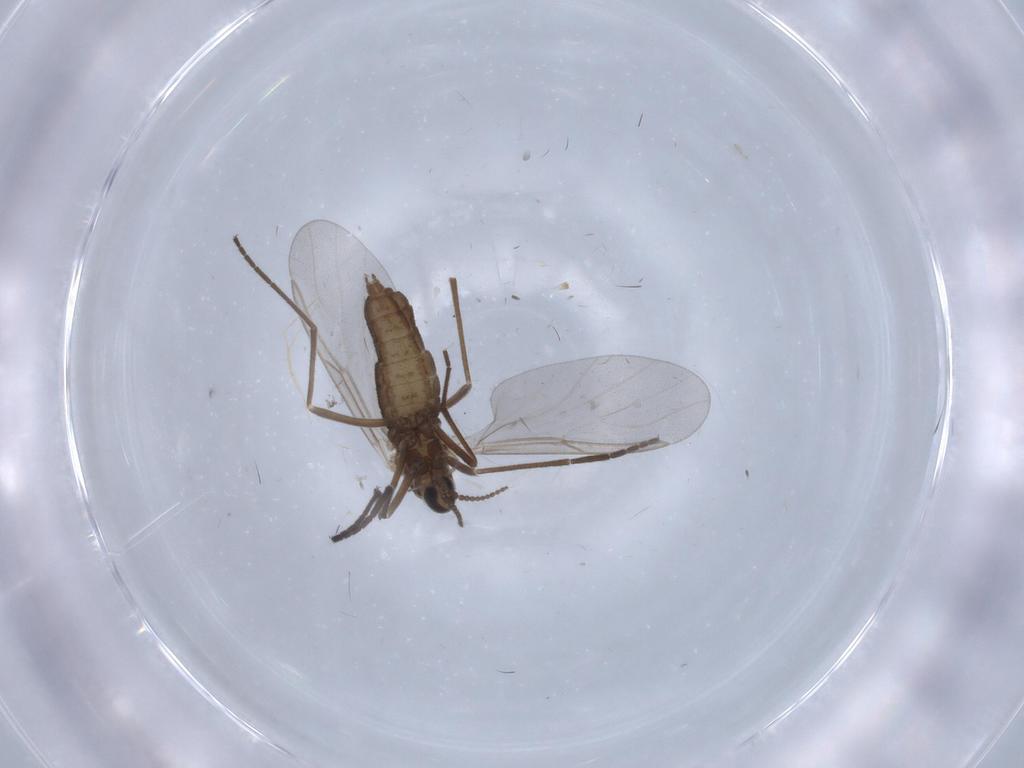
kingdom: Animalia
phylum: Arthropoda
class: Insecta
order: Diptera
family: Cecidomyiidae
